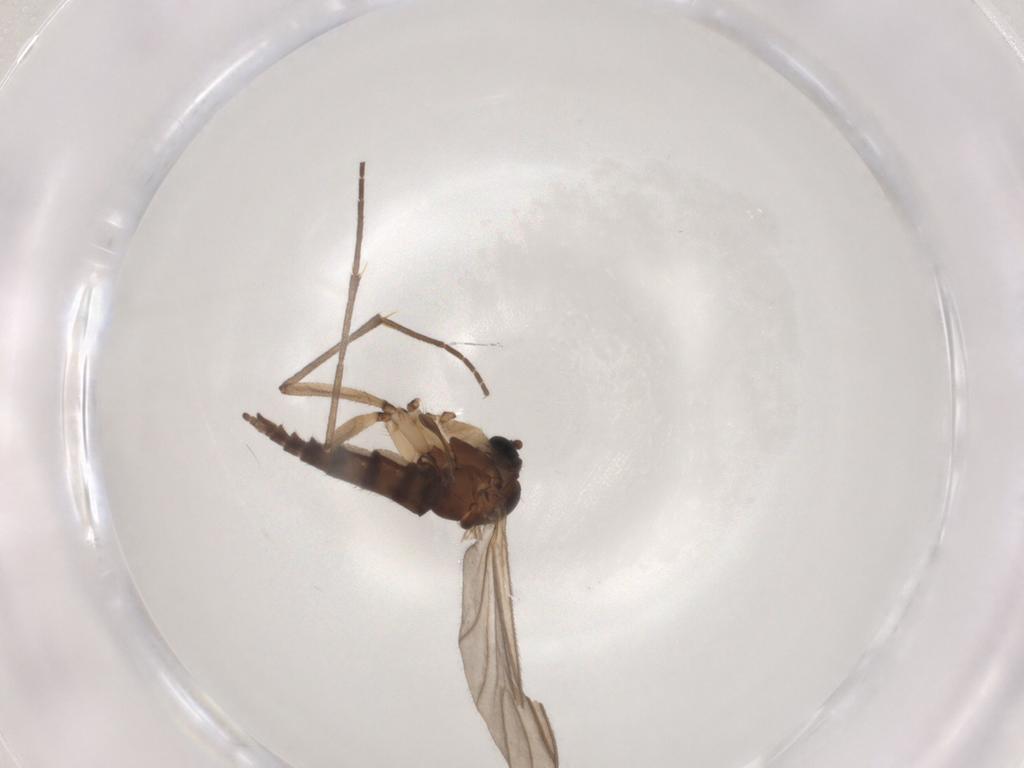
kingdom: Animalia
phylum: Arthropoda
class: Insecta
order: Diptera
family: Sciaridae
